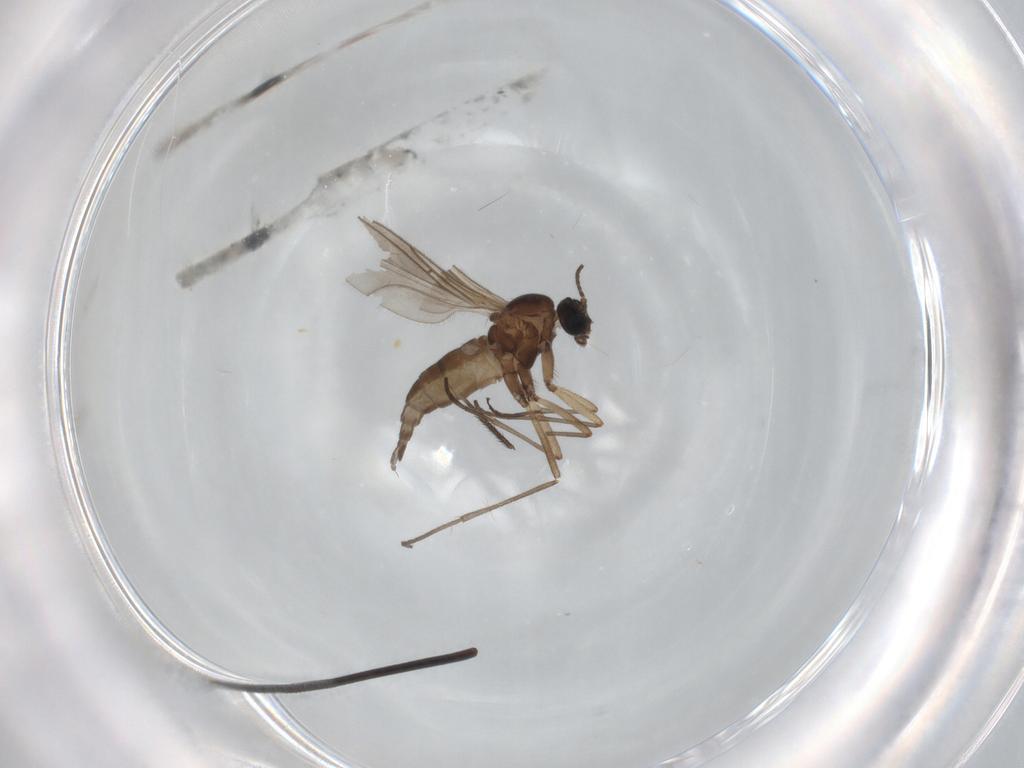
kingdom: Animalia
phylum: Arthropoda
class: Insecta
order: Diptera
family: Sciaridae
